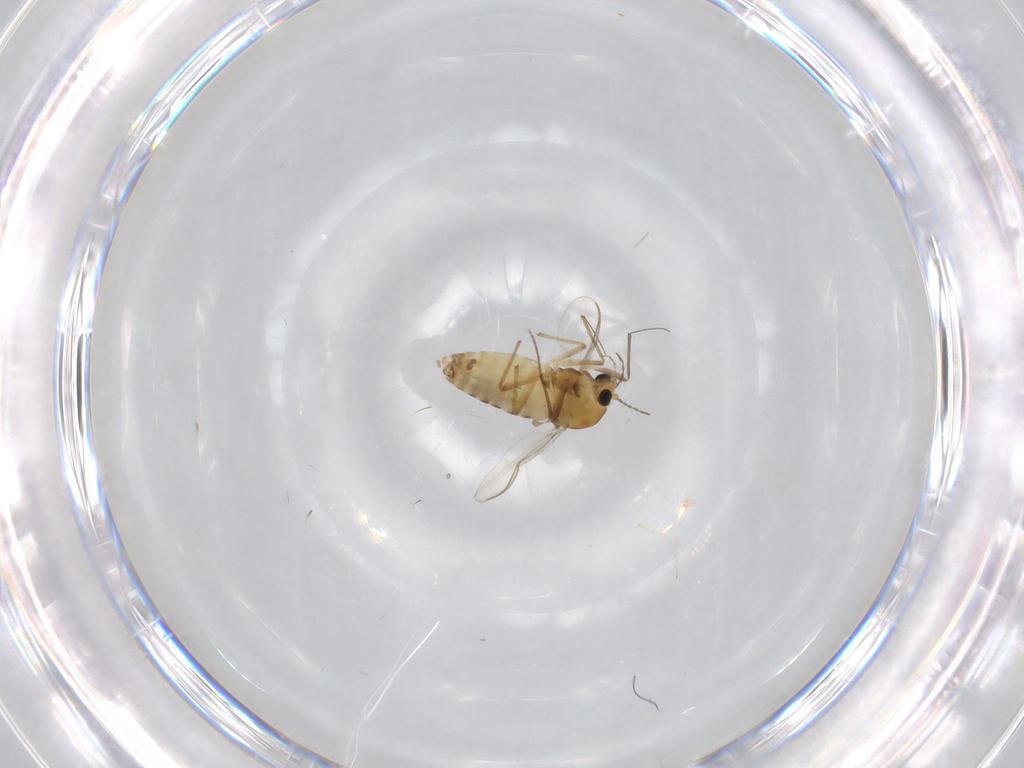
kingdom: Animalia
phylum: Arthropoda
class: Insecta
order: Diptera
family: Chironomidae
